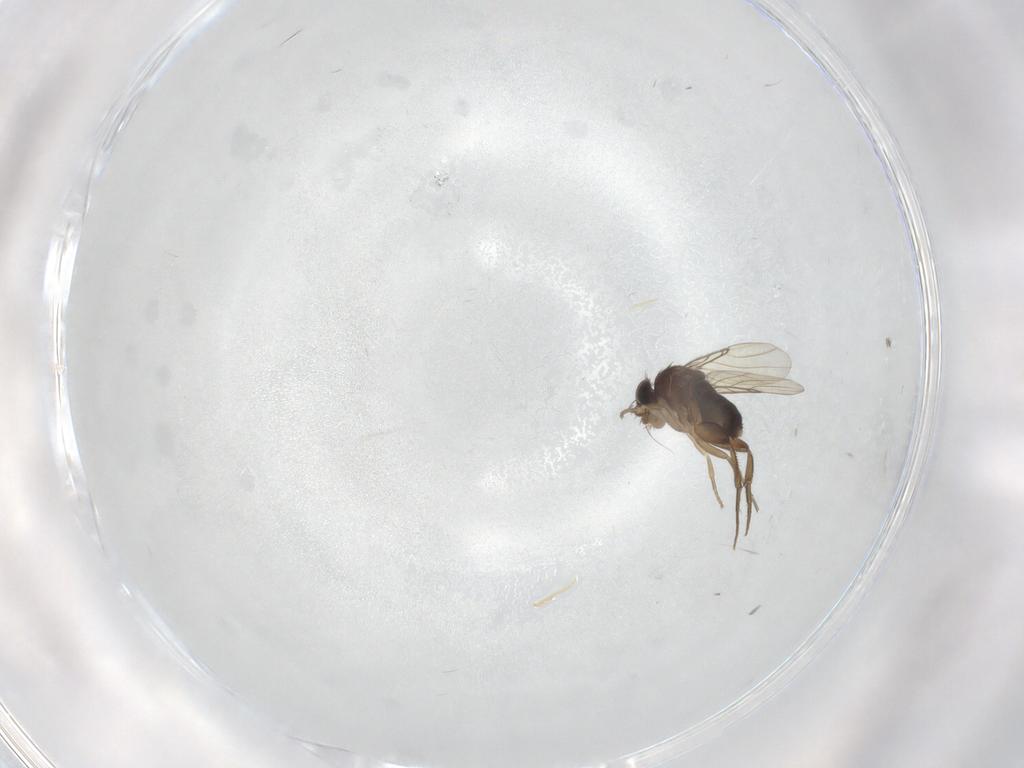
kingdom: Animalia
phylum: Arthropoda
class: Insecta
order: Diptera
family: Phoridae
